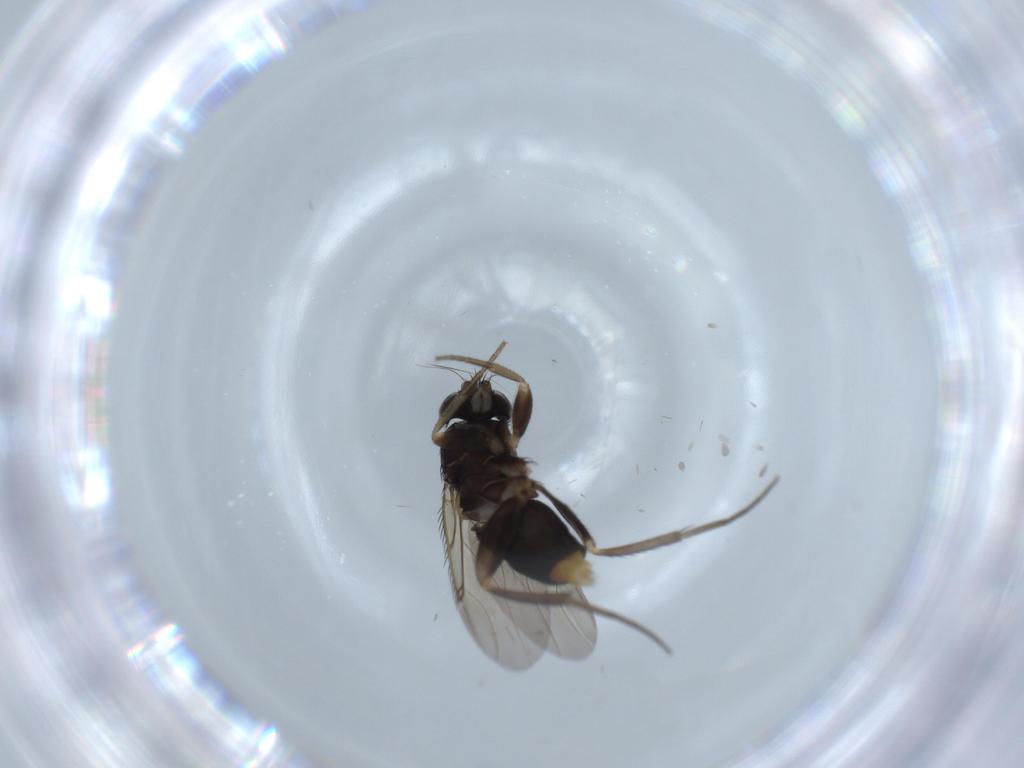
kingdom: Animalia
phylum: Arthropoda
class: Insecta
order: Diptera
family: Phoridae
